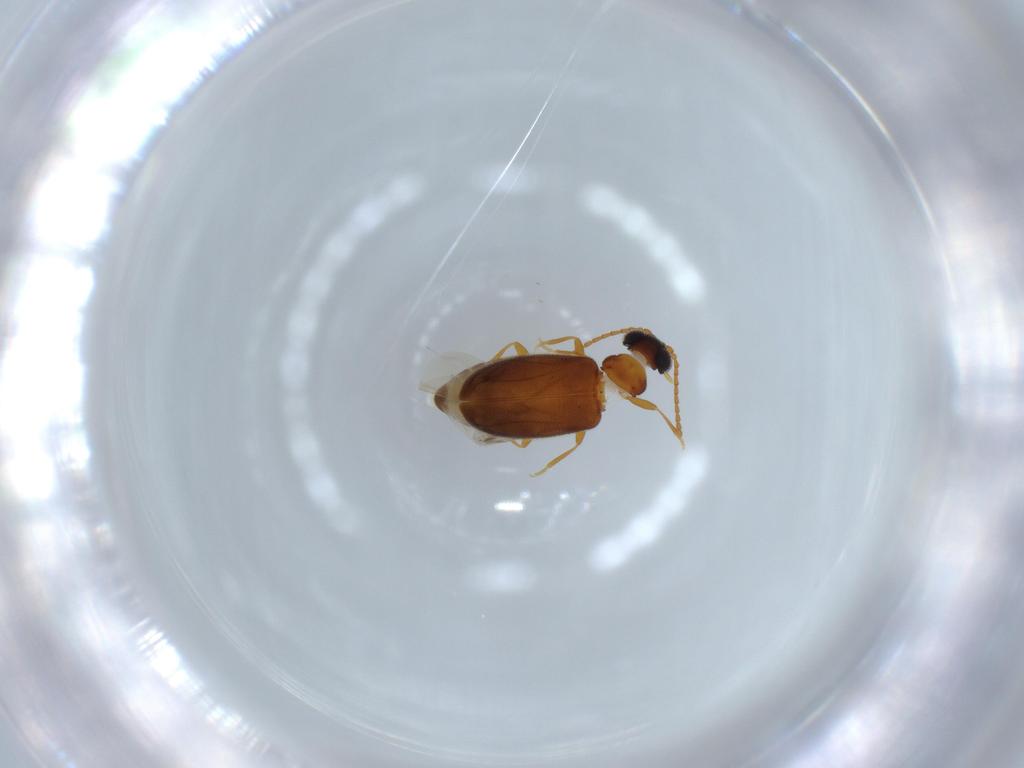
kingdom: Animalia
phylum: Arthropoda
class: Insecta
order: Coleoptera
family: Aderidae
